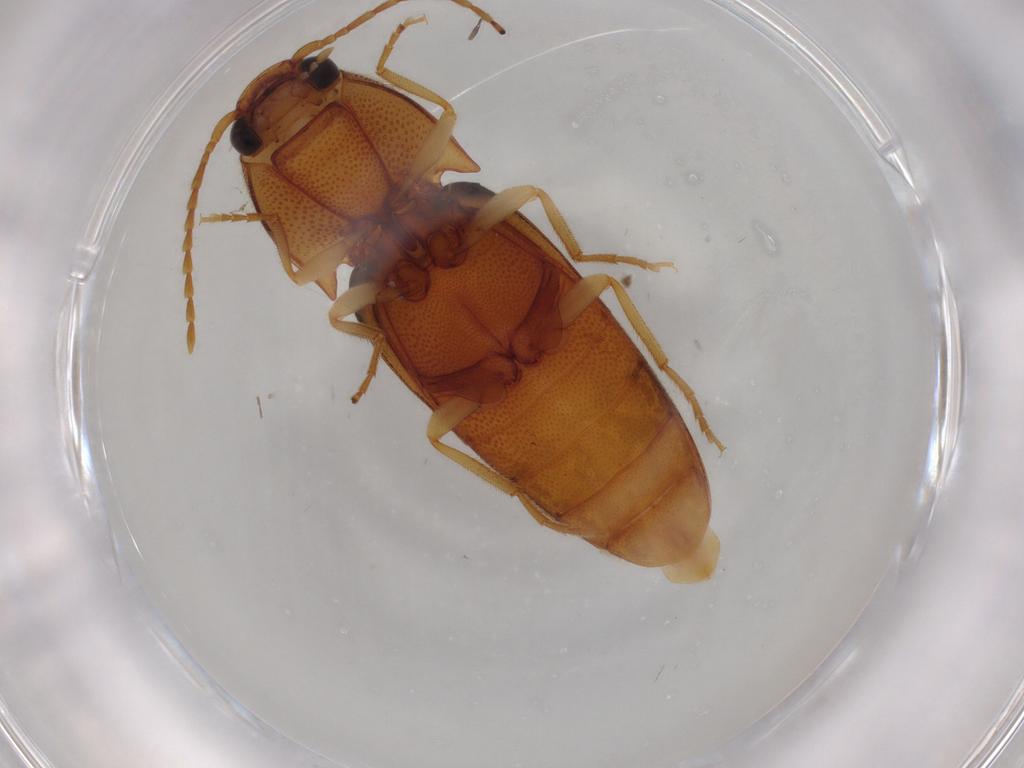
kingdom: Animalia
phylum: Arthropoda
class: Insecta
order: Coleoptera
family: Elateridae
